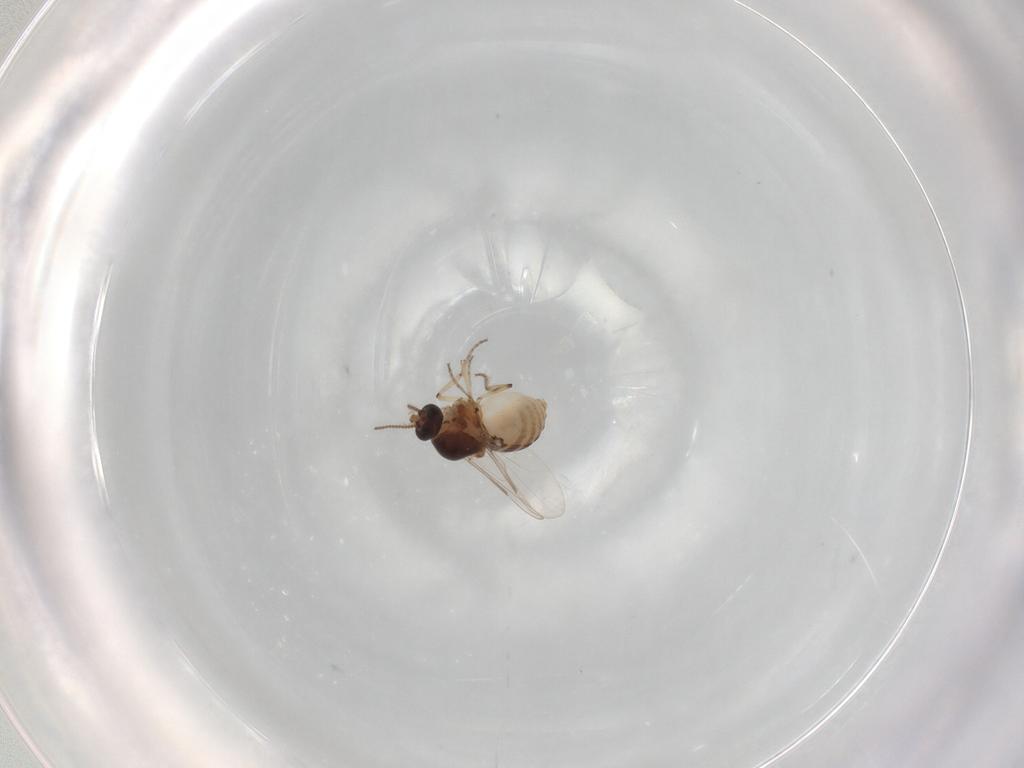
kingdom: Animalia
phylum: Arthropoda
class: Insecta
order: Diptera
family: Ceratopogonidae
